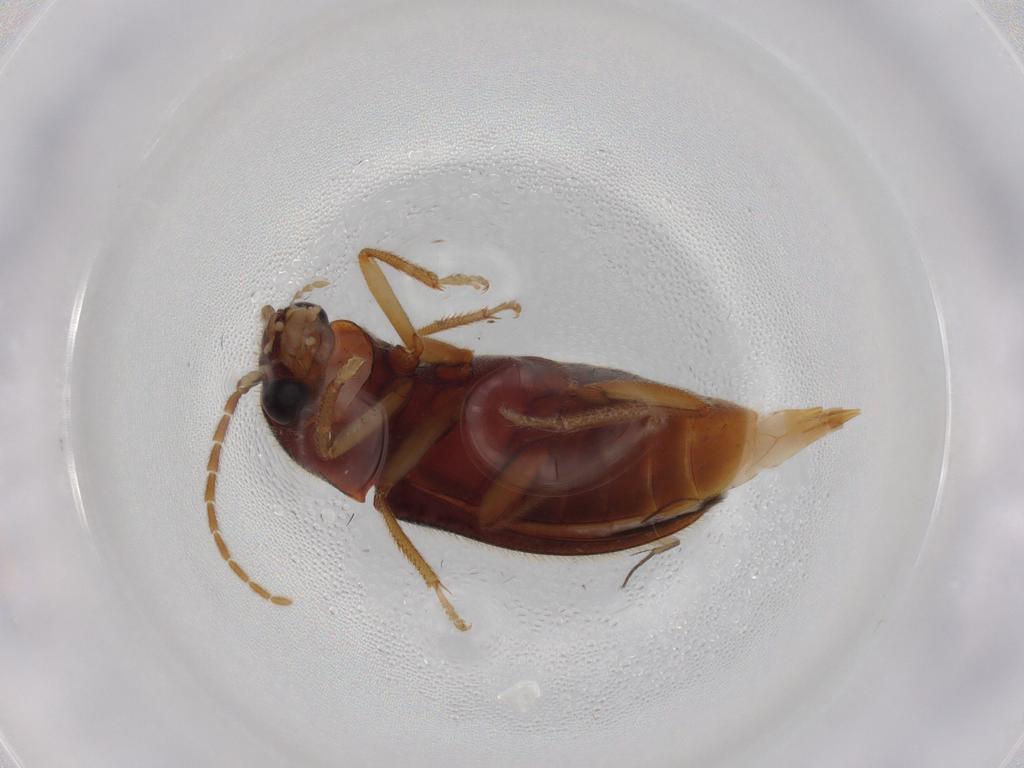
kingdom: Animalia
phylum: Arthropoda
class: Insecta
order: Coleoptera
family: Ptilodactylidae
